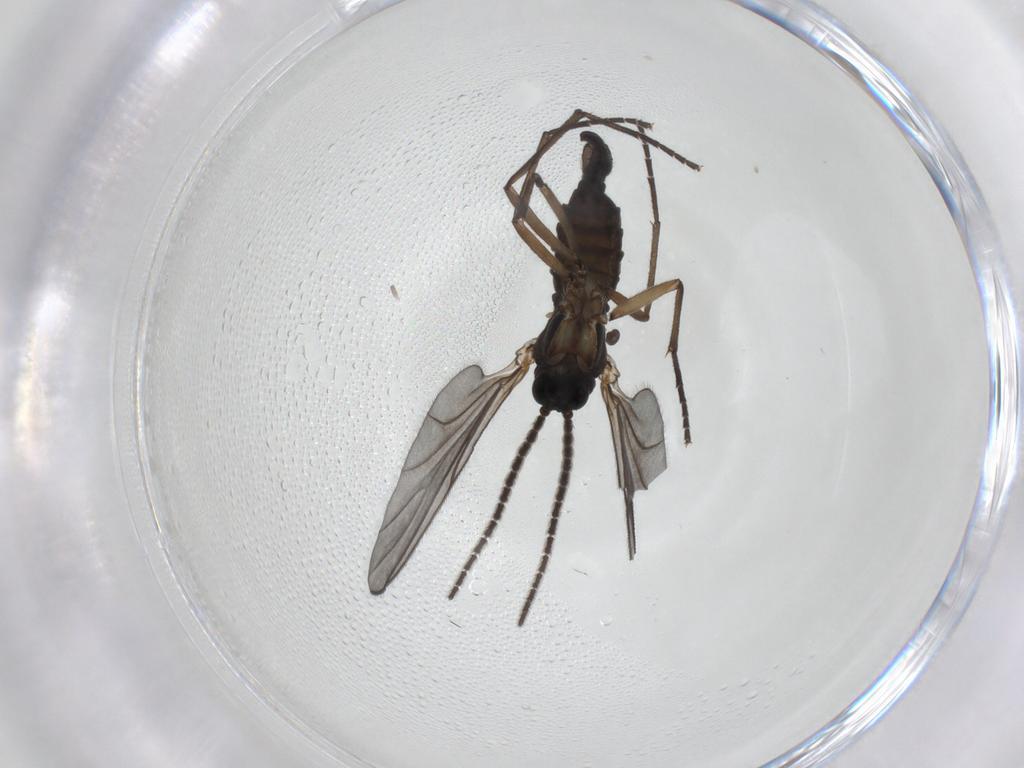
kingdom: Animalia
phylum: Arthropoda
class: Insecta
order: Diptera
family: Sciaridae
